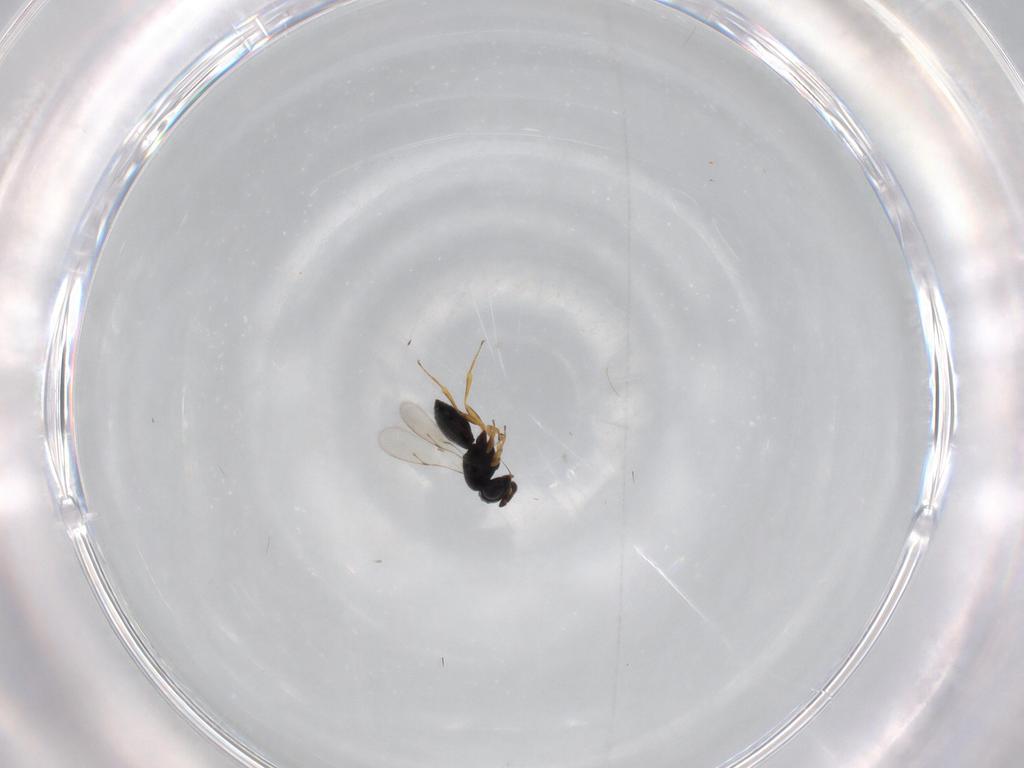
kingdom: Animalia
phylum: Arthropoda
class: Insecta
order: Hymenoptera
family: Scelionidae
